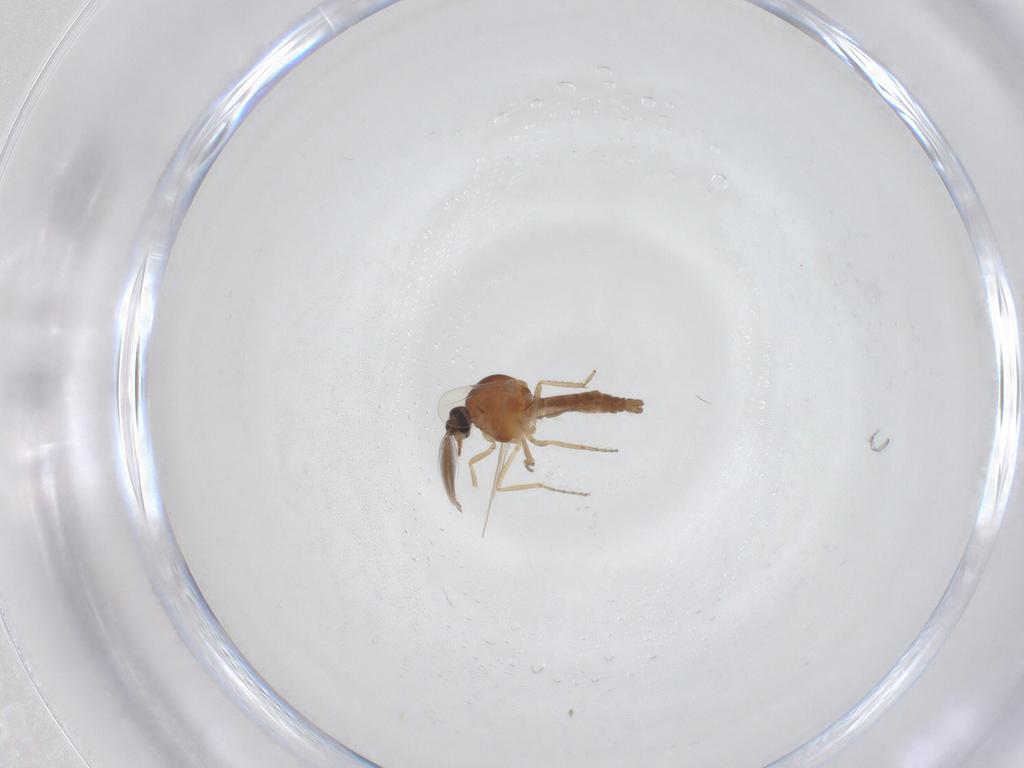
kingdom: Animalia
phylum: Arthropoda
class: Insecta
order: Diptera
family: Ceratopogonidae
